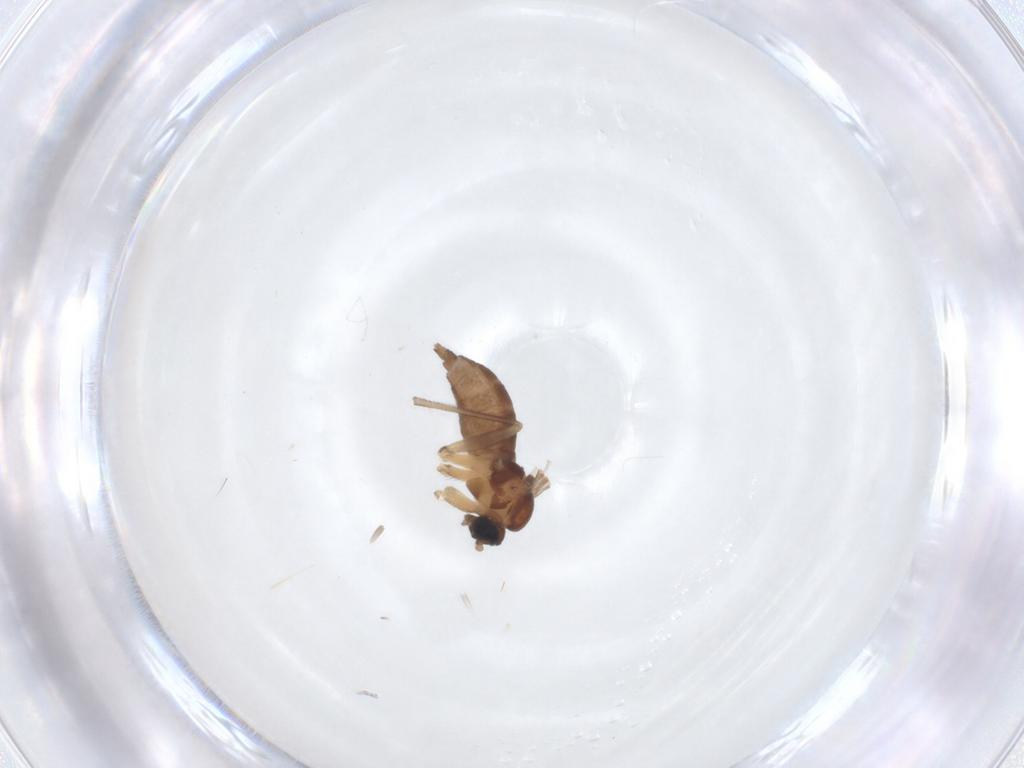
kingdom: Animalia
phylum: Arthropoda
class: Insecta
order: Diptera
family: Sciaridae
